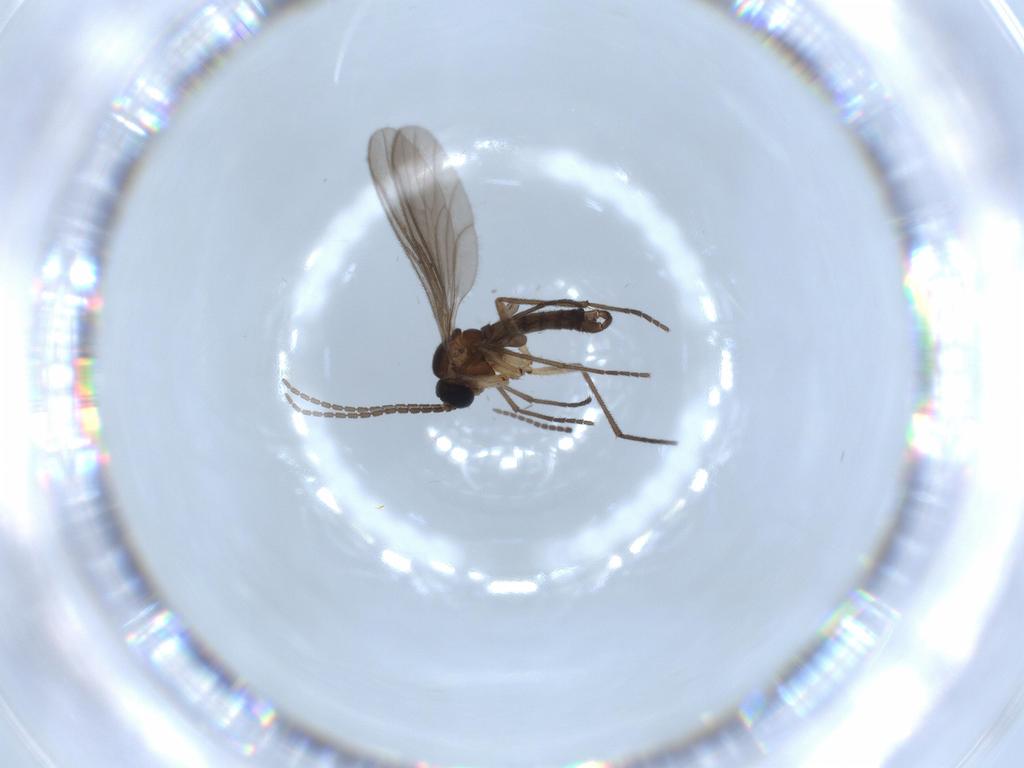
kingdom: Animalia
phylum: Arthropoda
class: Insecta
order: Diptera
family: Sciaridae
